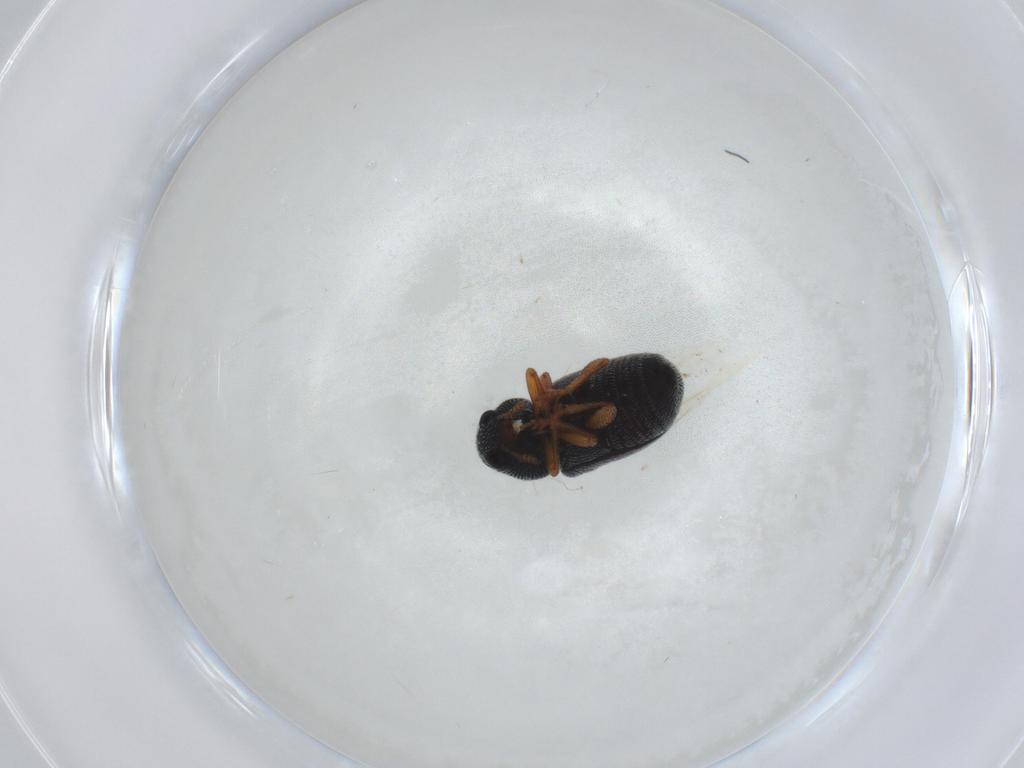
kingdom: Animalia
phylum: Arthropoda
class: Insecta
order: Coleoptera
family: Anthribidae
